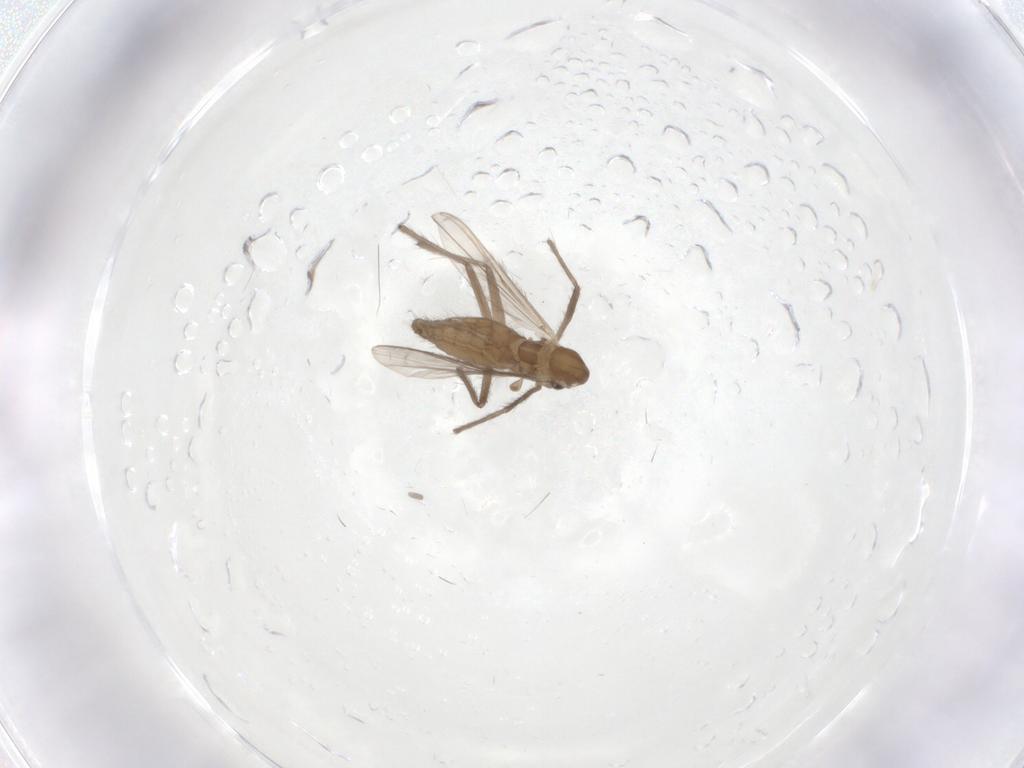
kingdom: Animalia
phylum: Arthropoda
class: Insecta
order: Diptera
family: Chironomidae
